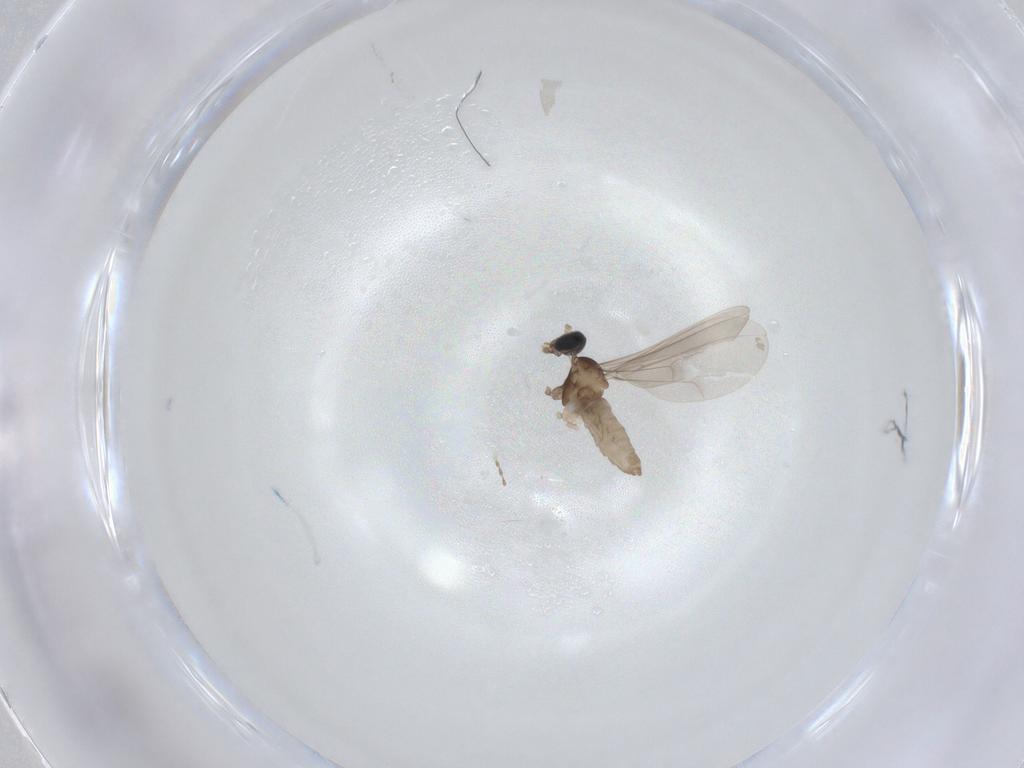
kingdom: Animalia
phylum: Arthropoda
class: Insecta
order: Diptera
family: Cecidomyiidae
